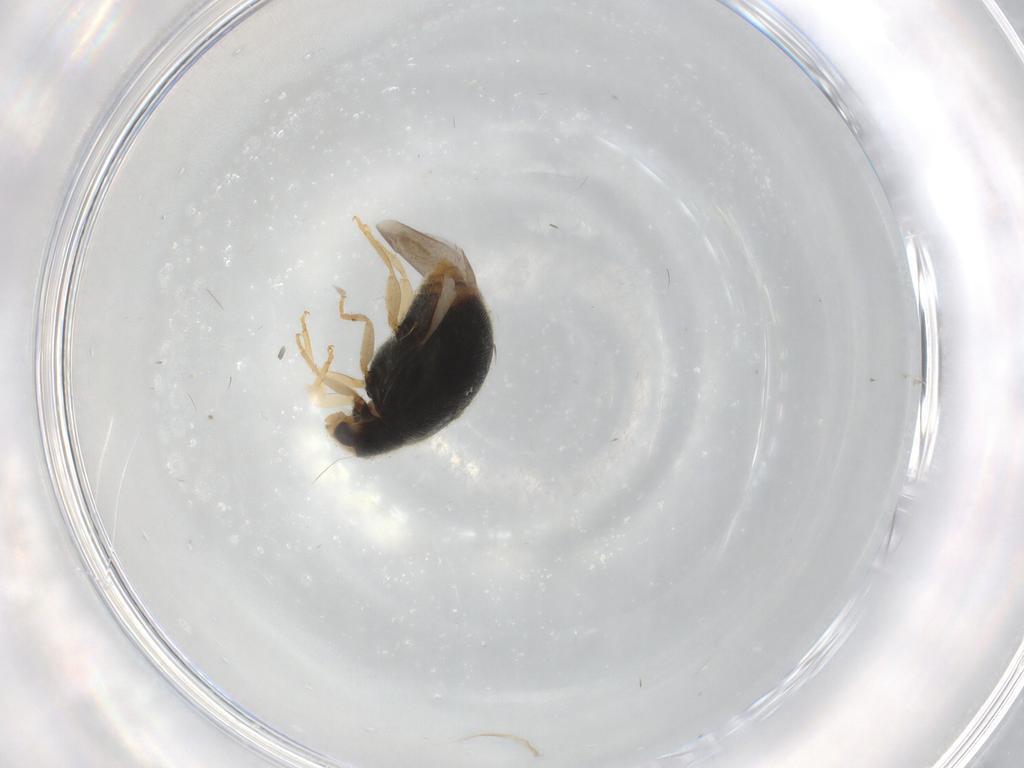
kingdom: Animalia
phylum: Arthropoda
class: Insecta
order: Coleoptera
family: Coccinellidae
